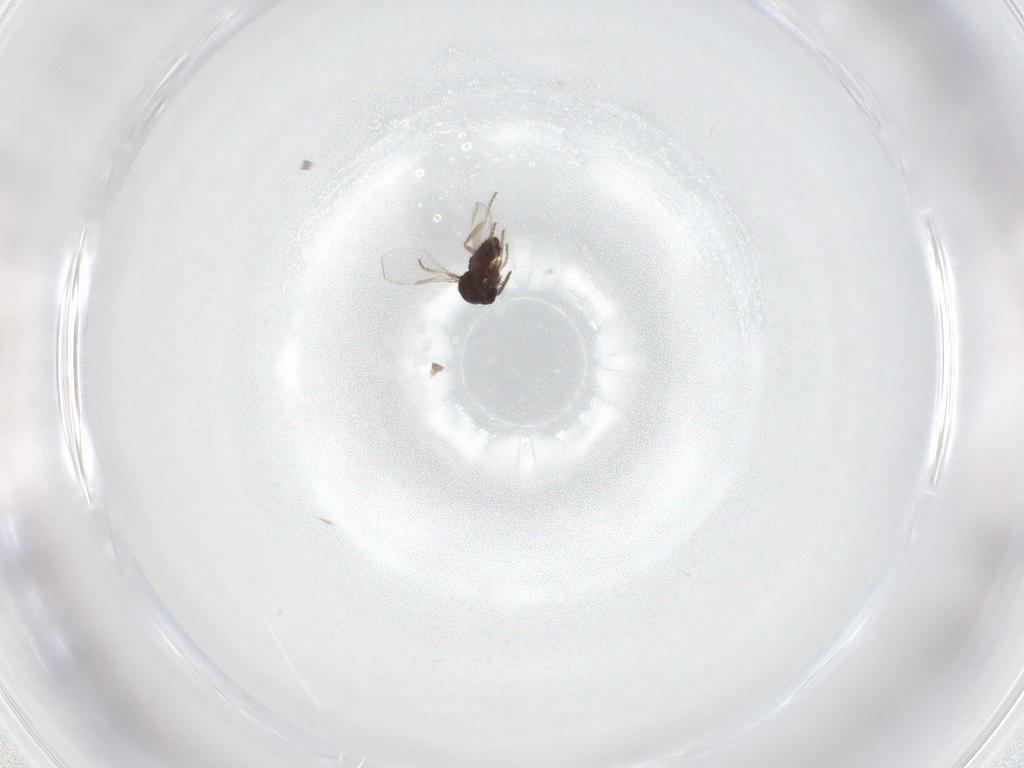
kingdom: Animalia
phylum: Arthropoda
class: Insecta
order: Diptera
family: Ceratopogonidae
